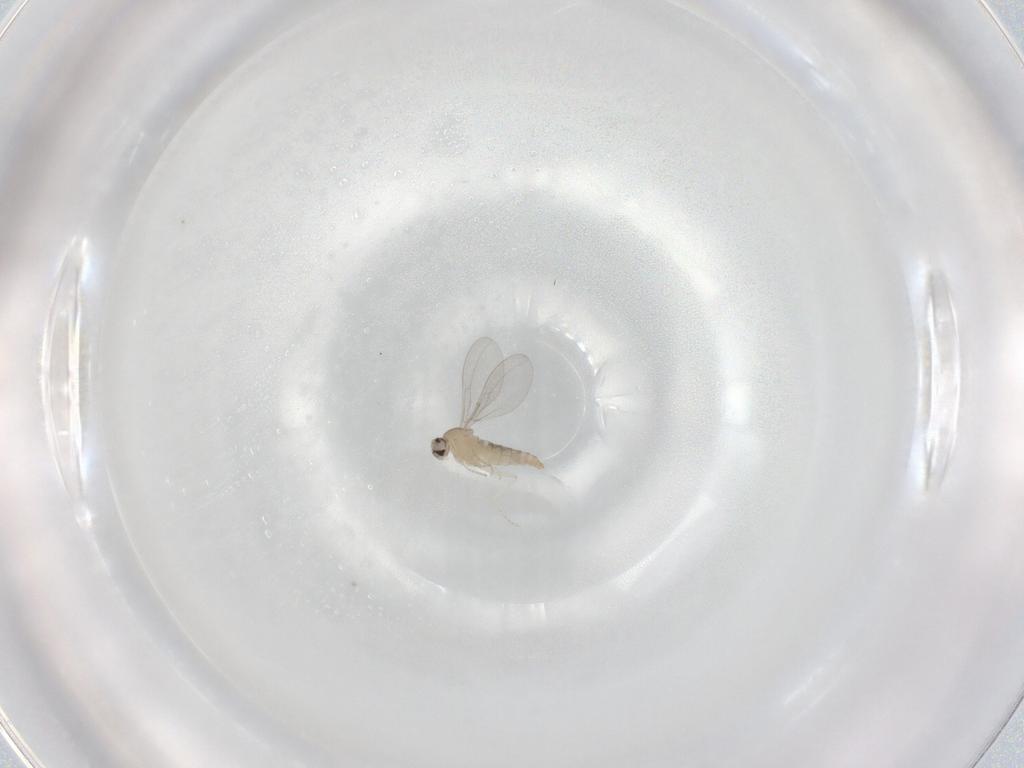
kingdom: Animalia
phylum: Arthropoda
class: Insecta
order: Diptera
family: Cecidomyiidae
